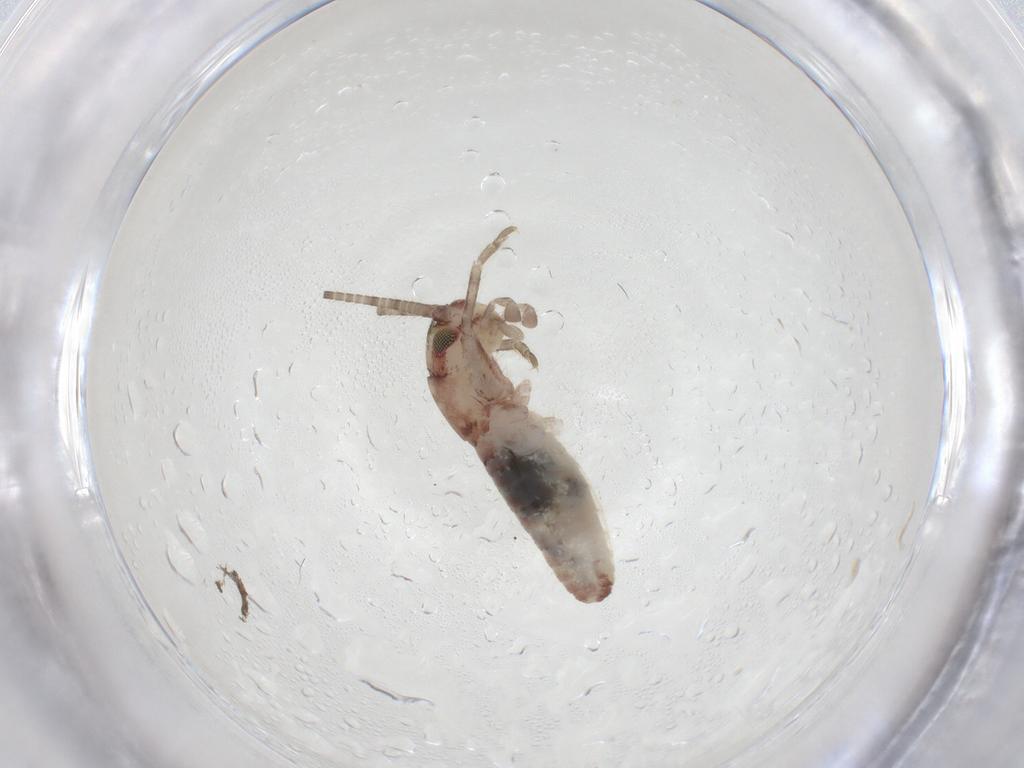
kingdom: Animalia
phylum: Arthropoda
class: Insecta
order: Orthoptera
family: Mogoplistidae
